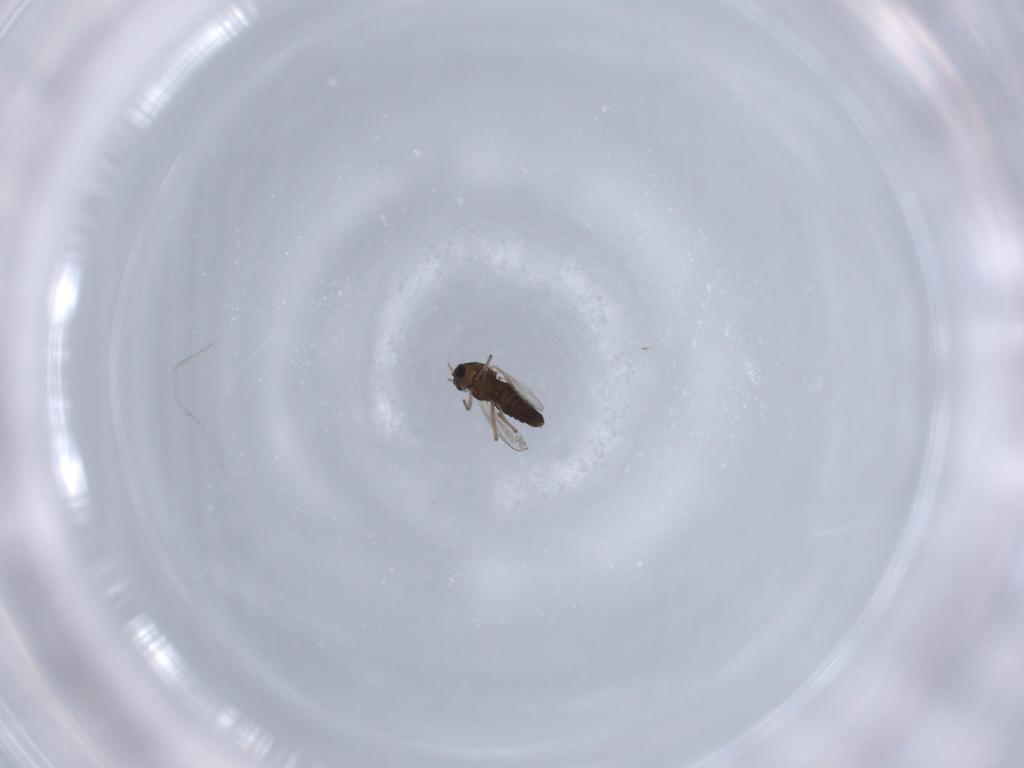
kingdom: Animalia
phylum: Arthropoda
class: Insecta
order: Diptera
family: Chironomidae
